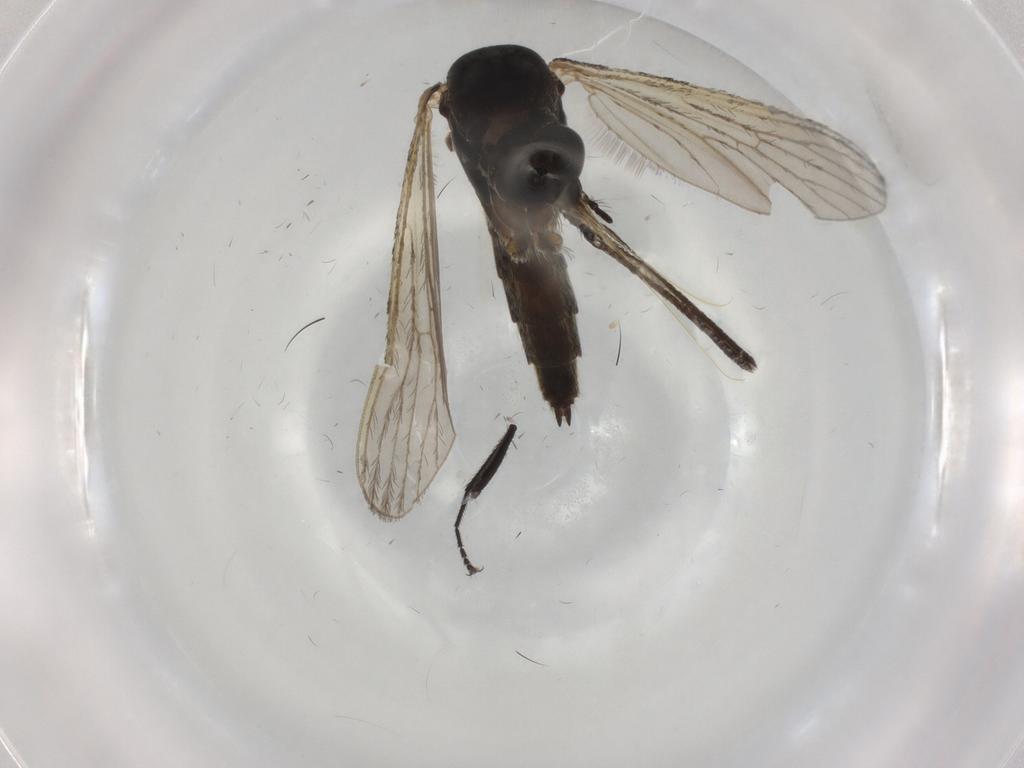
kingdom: Animalia
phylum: Arthropoda
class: Insecta
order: Diptera
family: Phoridae
